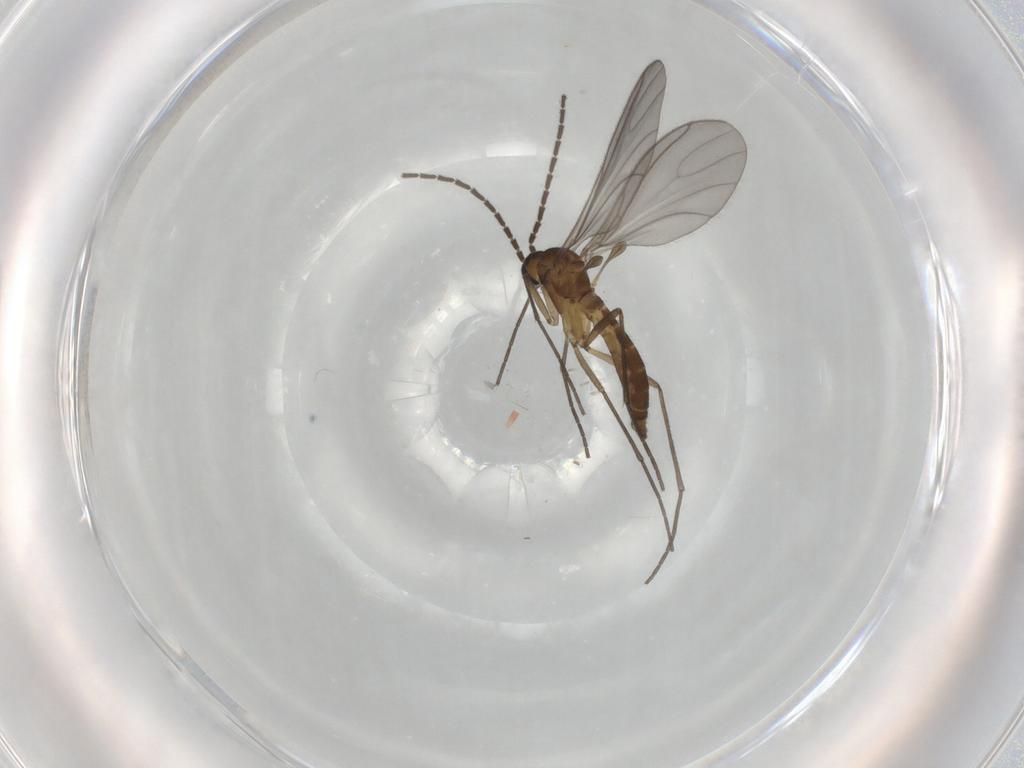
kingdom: Animalia
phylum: Arthropoda
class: Insecta
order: Diptera
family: Sciaridae
